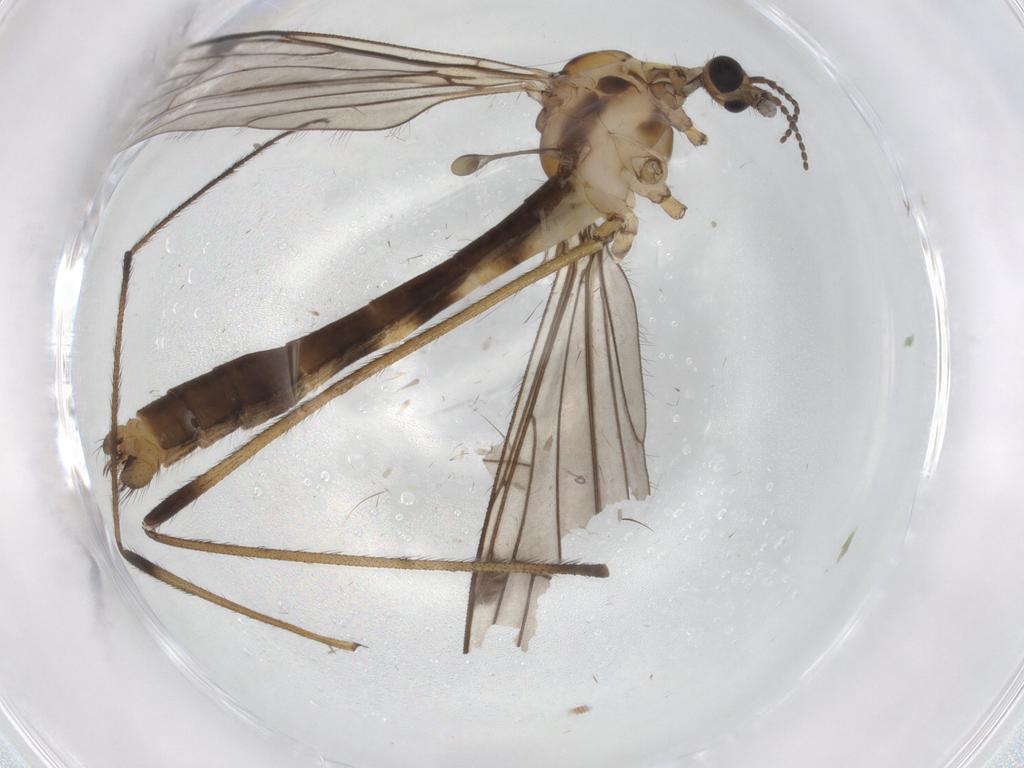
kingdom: Animalia
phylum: Arthropoda
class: Insecta
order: Diptera
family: Limoniidae
